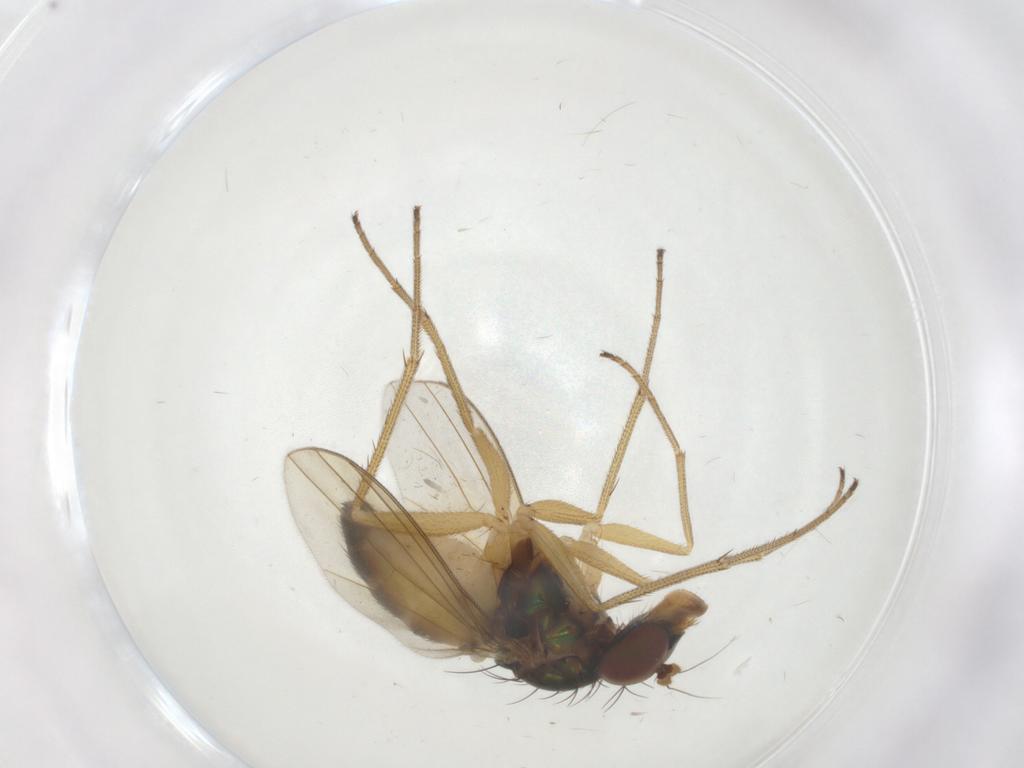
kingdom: Animalia
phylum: Arthropoda
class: Insecta
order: Diptera
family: Dolichopodidae
